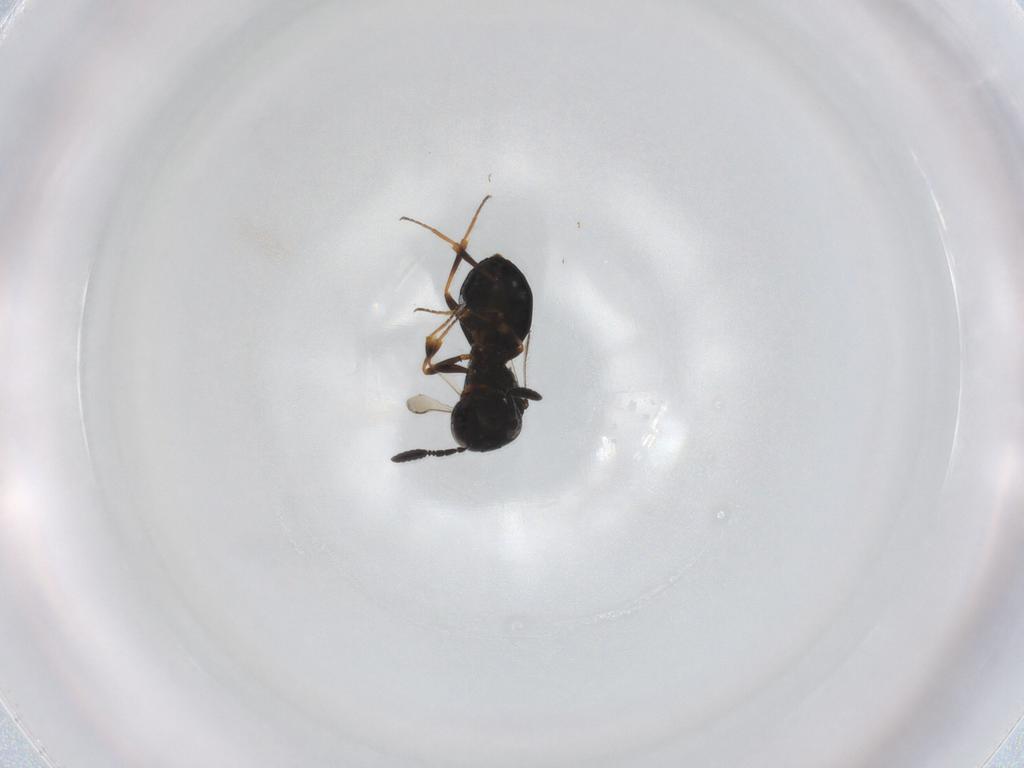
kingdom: Animalia
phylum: Arthropoda
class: Insecta
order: Hymenoptera
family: Scelionidae
